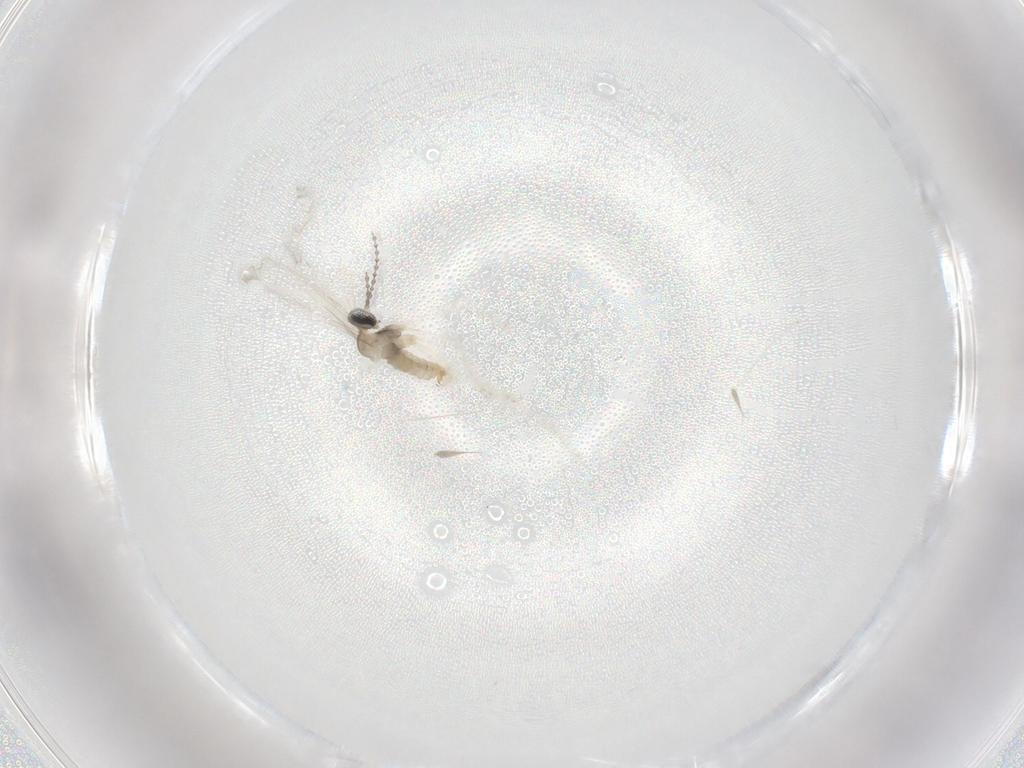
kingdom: Animalia
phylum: Arthropoda
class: Insecta
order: Diptera
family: Cecidomyiidae
